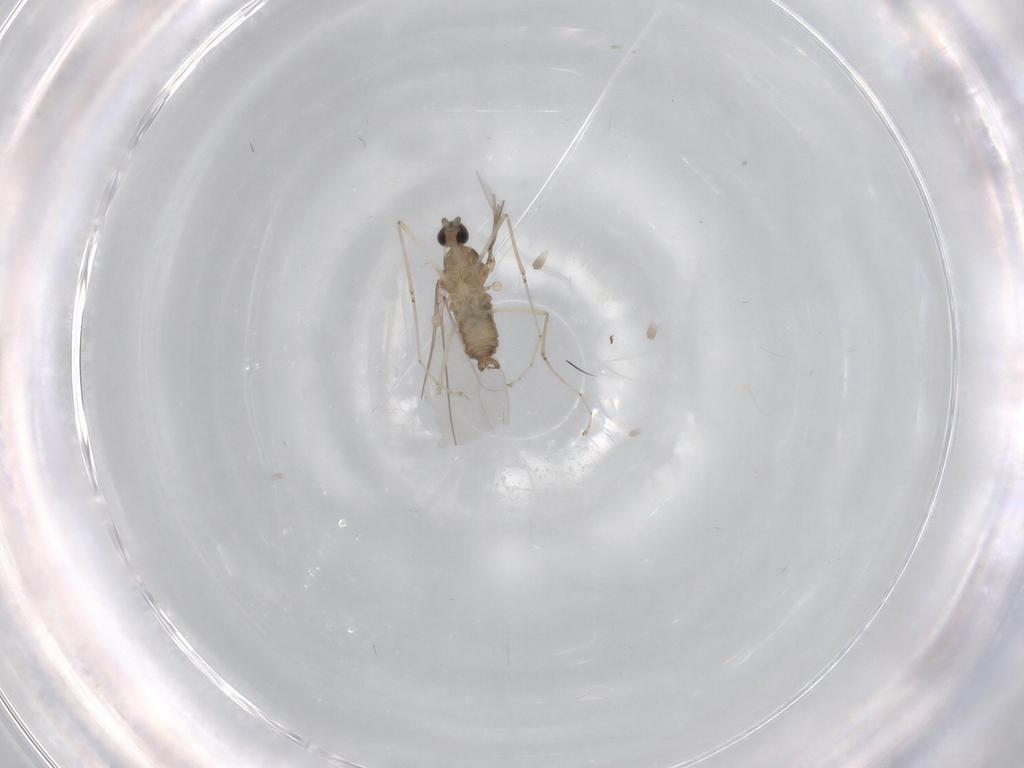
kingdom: Animalia
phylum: Arthropoda
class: Insecta
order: Diptera
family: Cecidomyiidae
